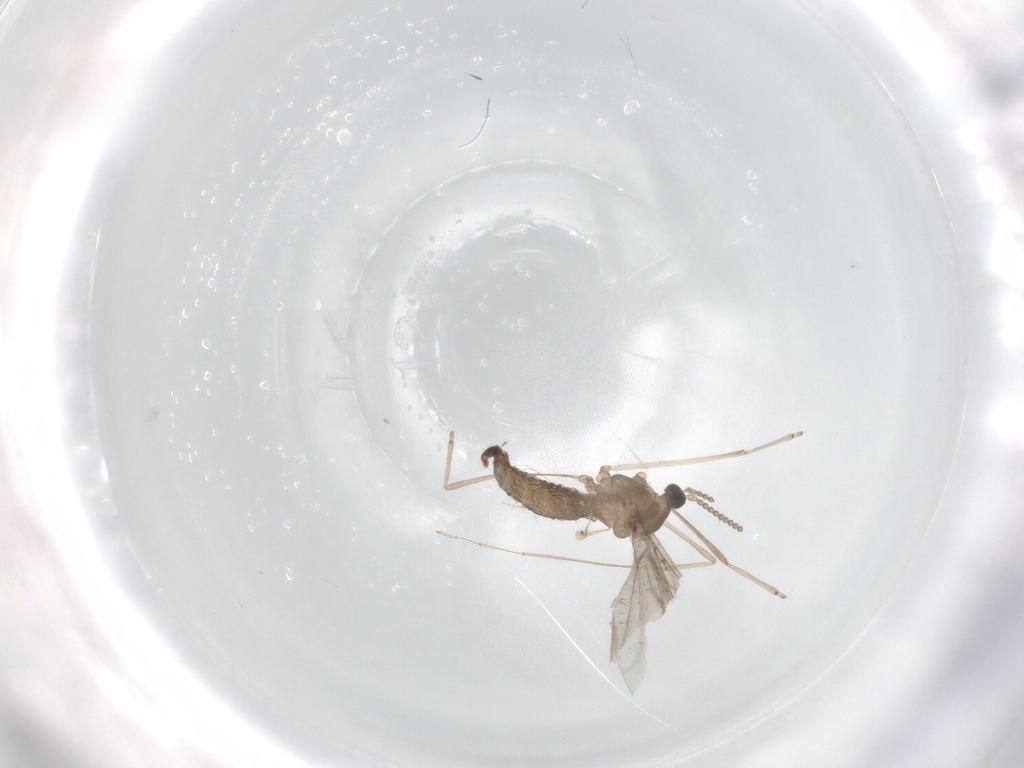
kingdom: Animalia
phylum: Arthropoda
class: Insecta
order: Diptera
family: Cecidomyiidae
